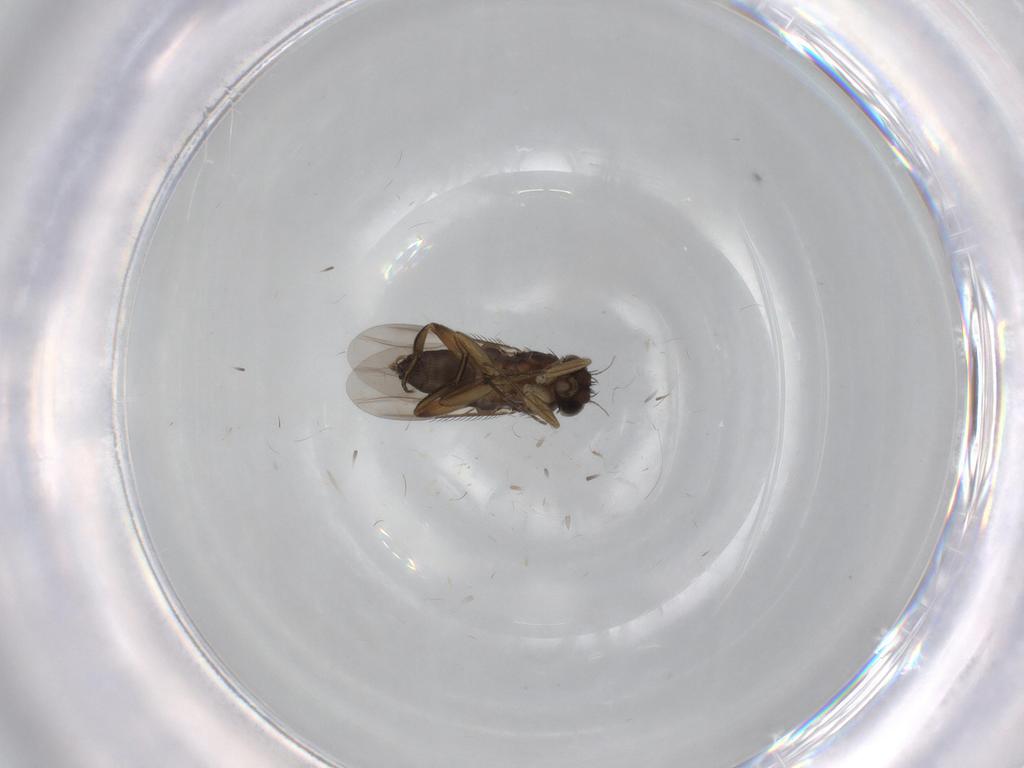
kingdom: Animalia
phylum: Arthropoda
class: Insecta
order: Diptera
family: Phoridae
